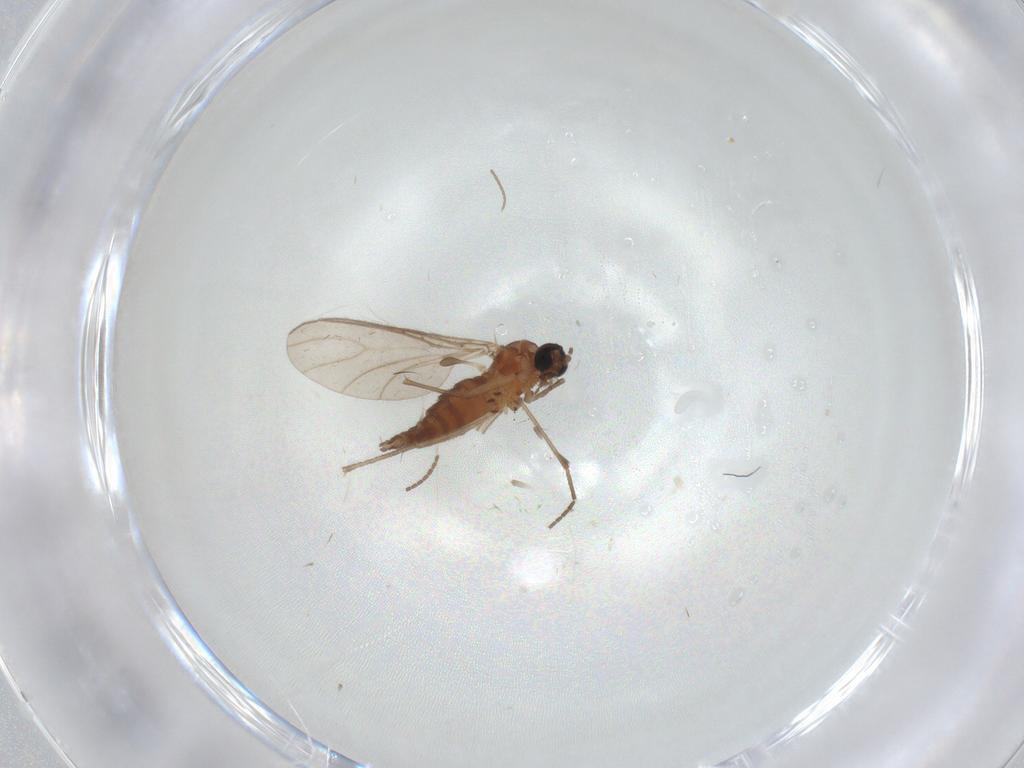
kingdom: Animalia
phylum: Arthropoda
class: Insecta
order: Diptera
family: Sciaridae
